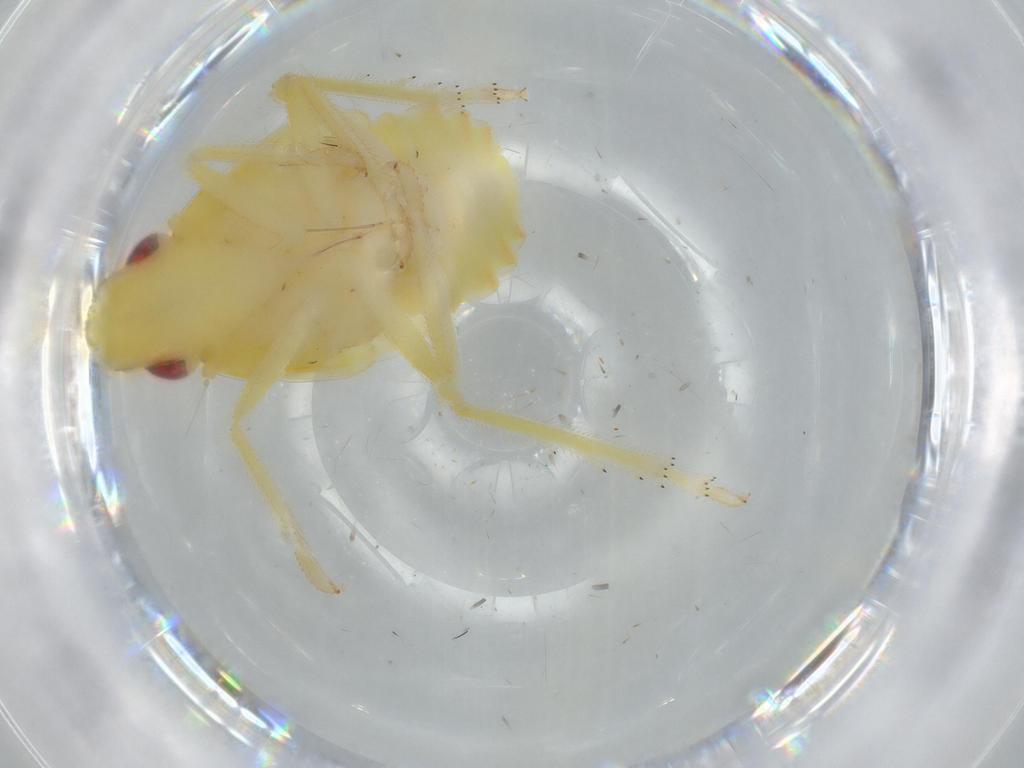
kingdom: Animalia
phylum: Arthropoda
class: Insecta
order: Hemiptera
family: Tropiduchidae
